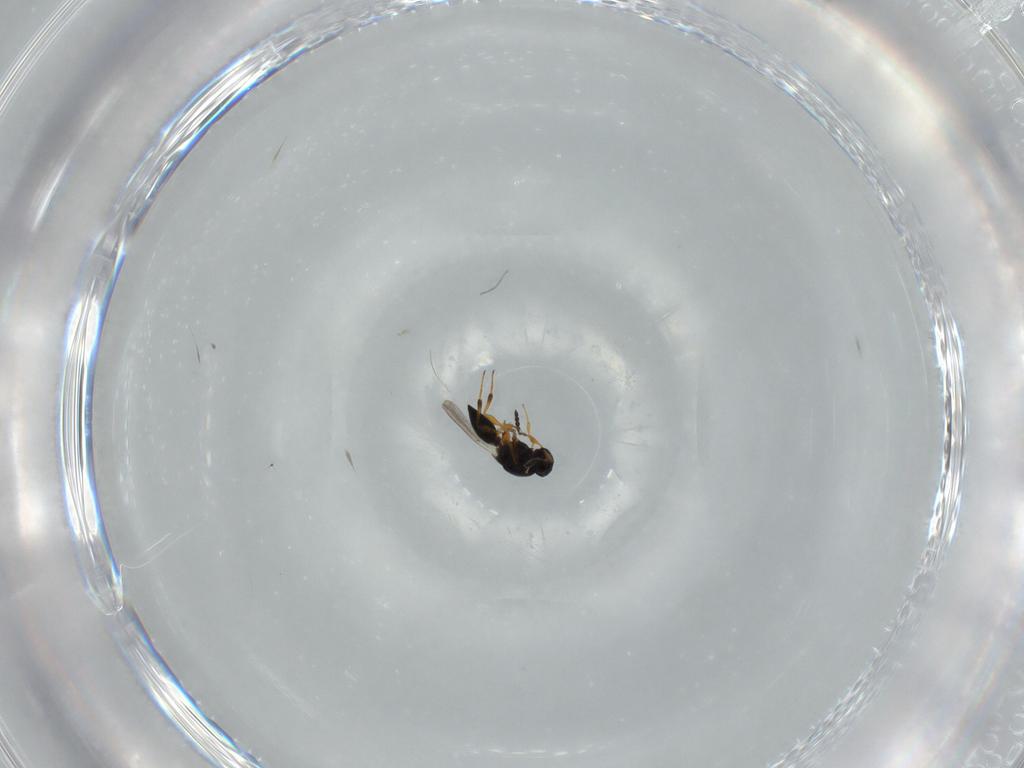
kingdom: Animalia
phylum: Arthropoda
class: Insecta
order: Hymenoptera
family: Platygastridae
